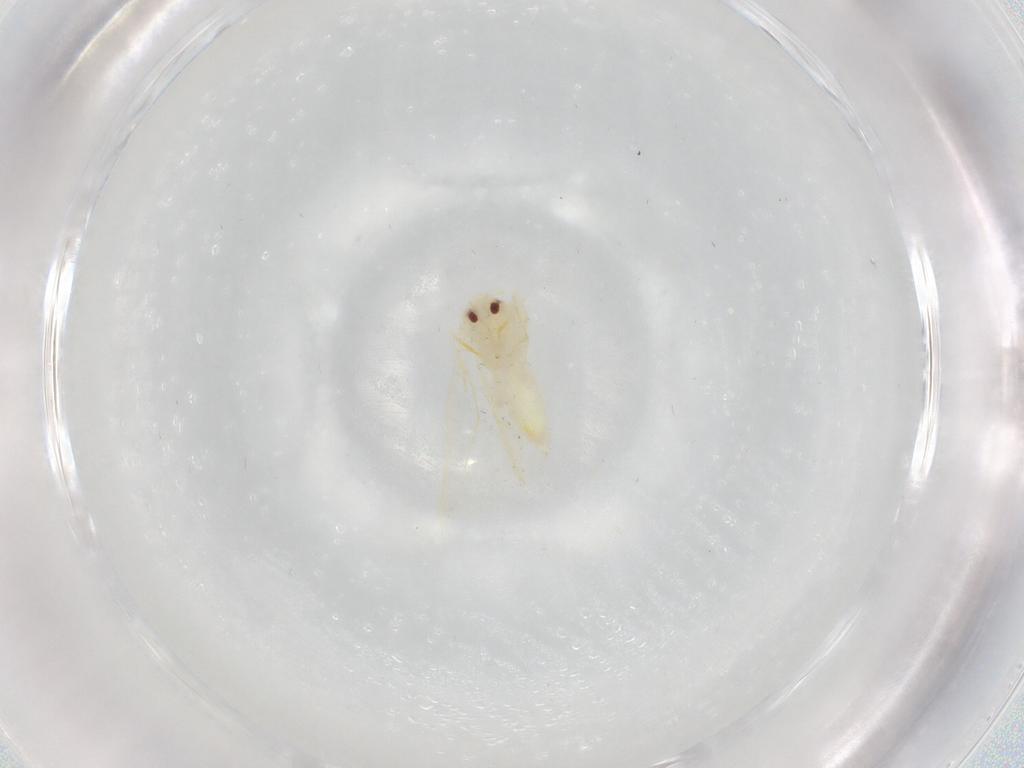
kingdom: Animalia
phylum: Arthropoda
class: Insecta
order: Hemiptera
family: Aleyrodidae
